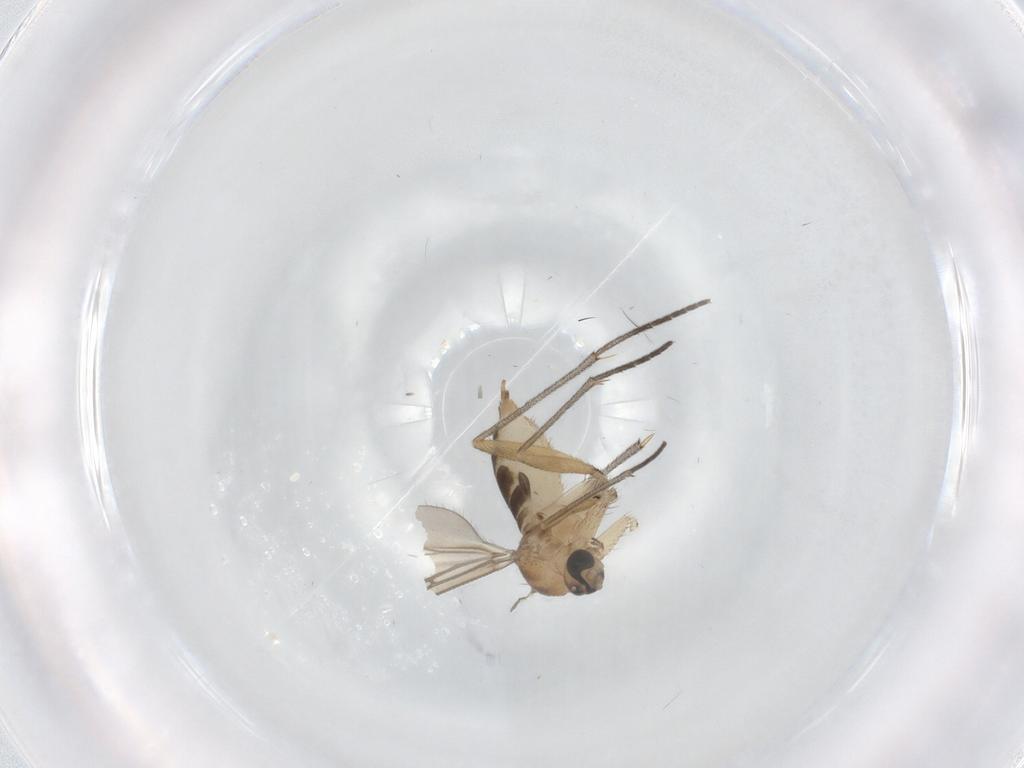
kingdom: Animalia
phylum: Arthropoda
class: Insecta
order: Diptera
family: Sciaridae
